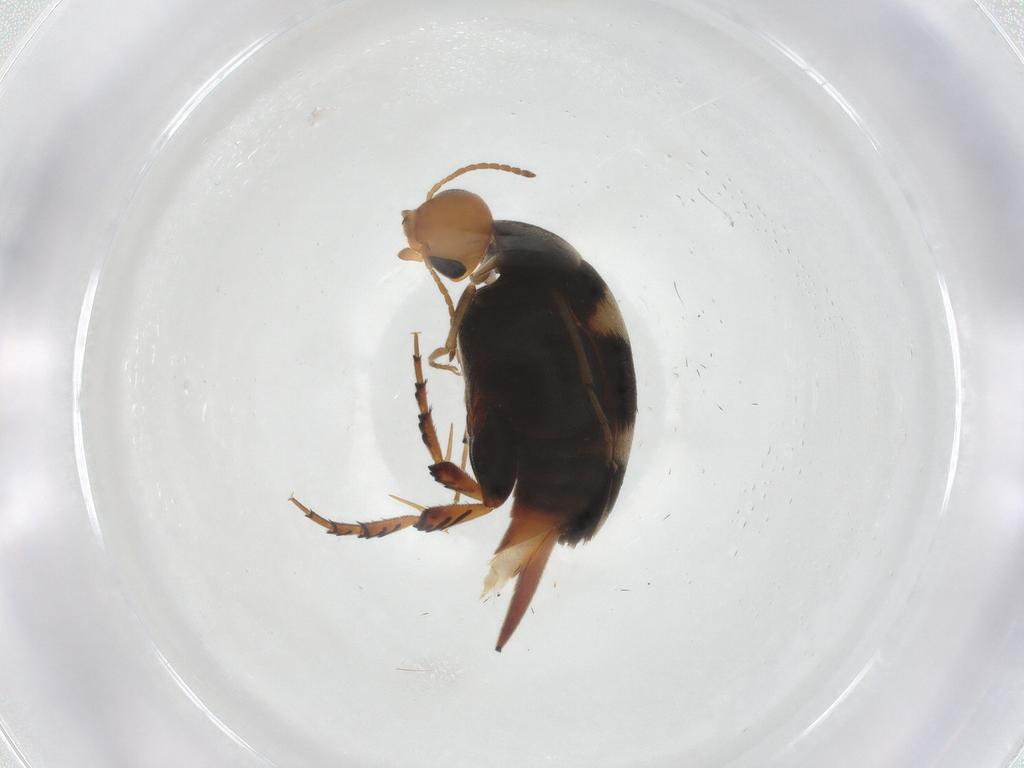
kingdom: Animalia
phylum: Arthropoda
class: Insecta
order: Coleoptera
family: Mordellidae
